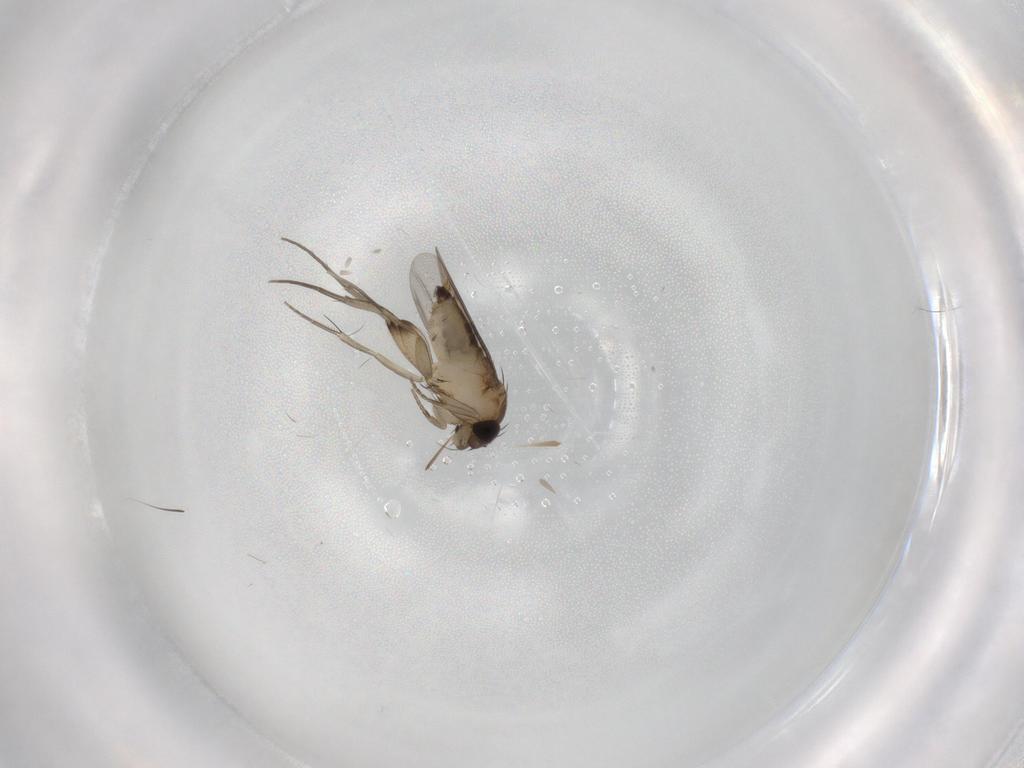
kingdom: Animalia
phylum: Arthropoda
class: Insecta
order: Diptera
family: Phoridae
